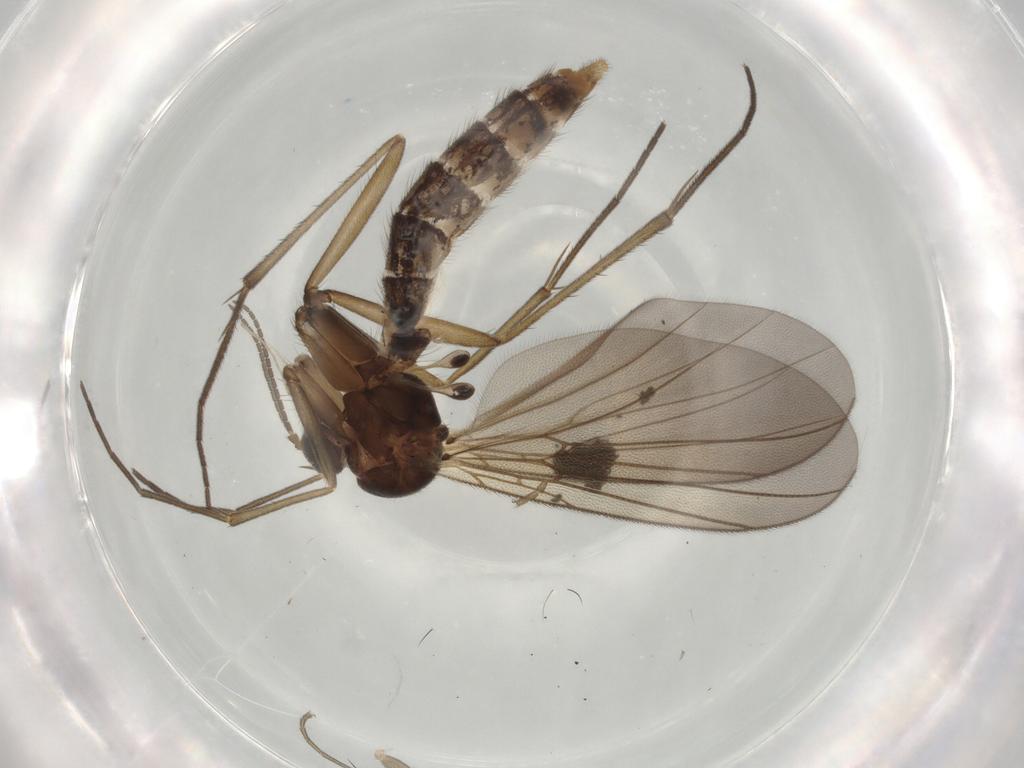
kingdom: Animalia
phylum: Arthropoda
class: Insecta
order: Diptera
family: Mycetophilidae
